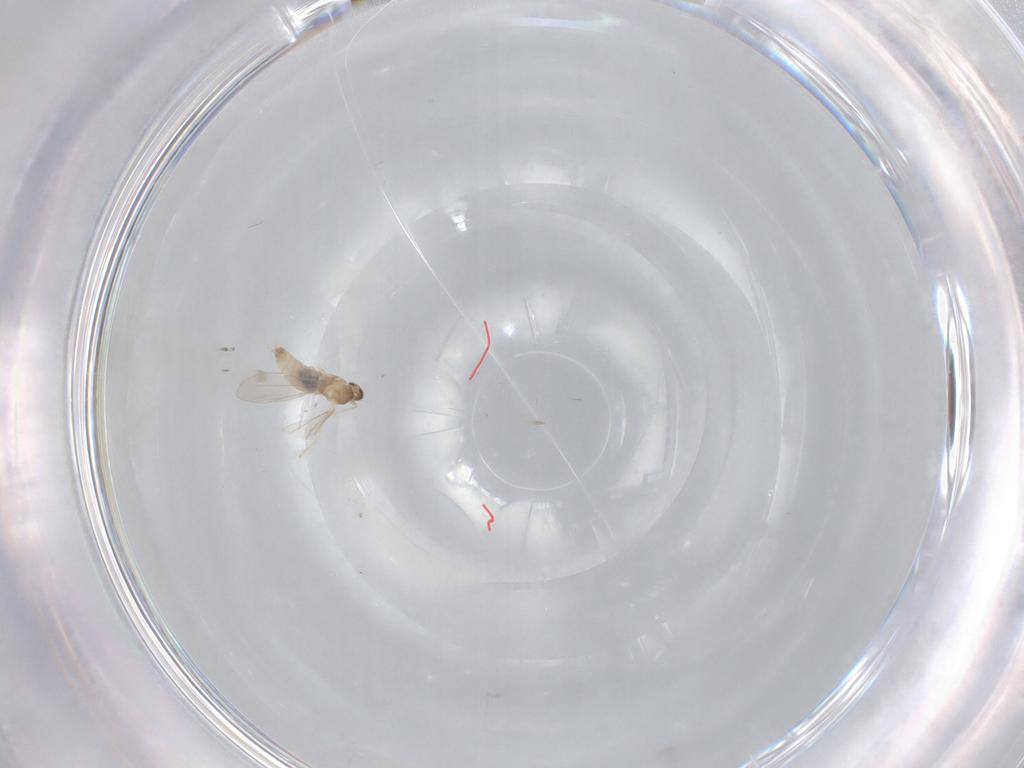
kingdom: Animalia
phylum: Arthropoda
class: Insecta
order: Diptera
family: Cecidomyiidae
